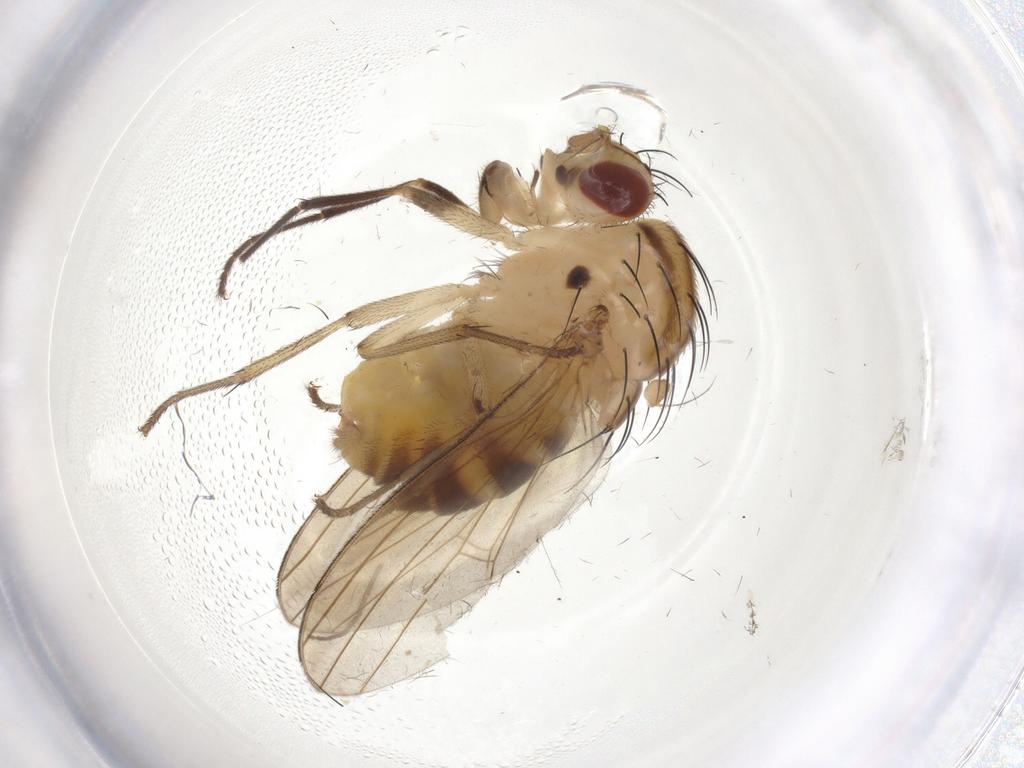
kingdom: Animalia
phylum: Arthropoda
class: Insecta
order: Diptera
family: Lauxaniidae
